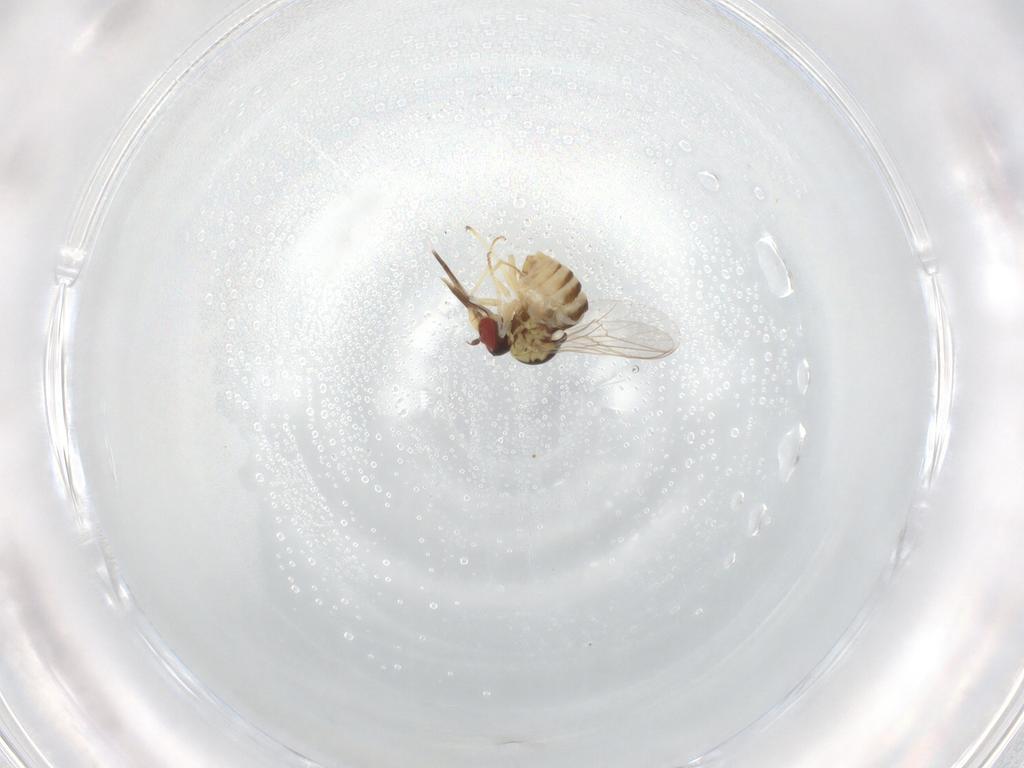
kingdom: Animalia
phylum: Arthropoda
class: Insecta
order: Diptera
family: Bombyliidae
